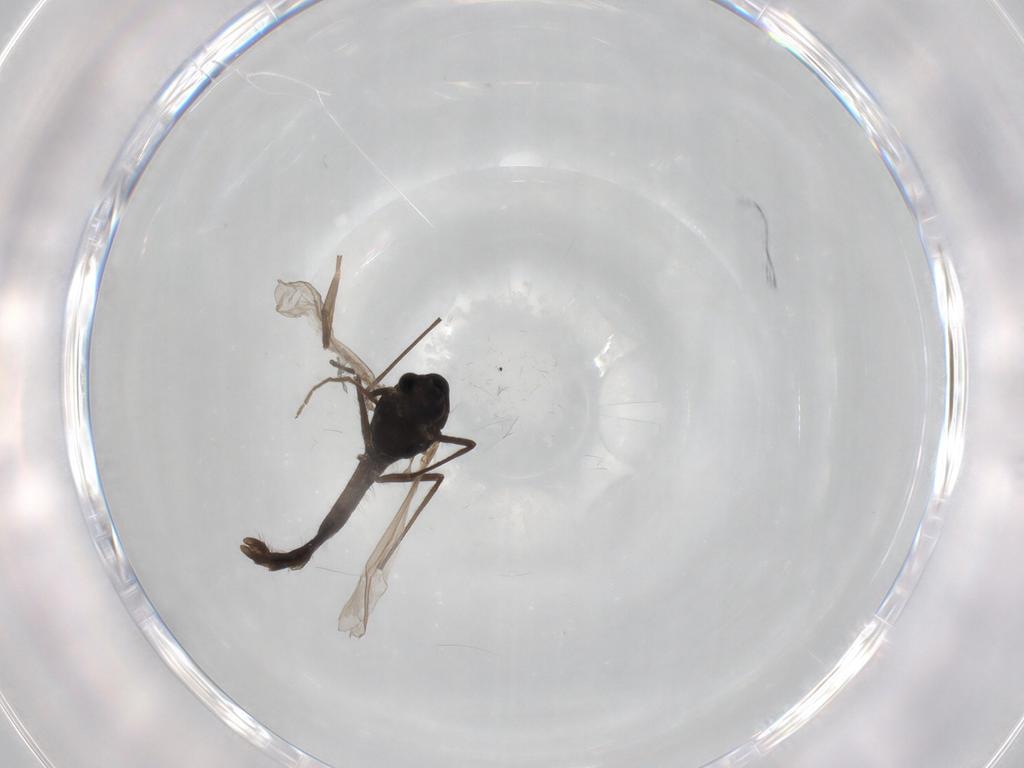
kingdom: Animalia
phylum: Arthropoda
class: Insecta
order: Diptera
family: Chironomidae
